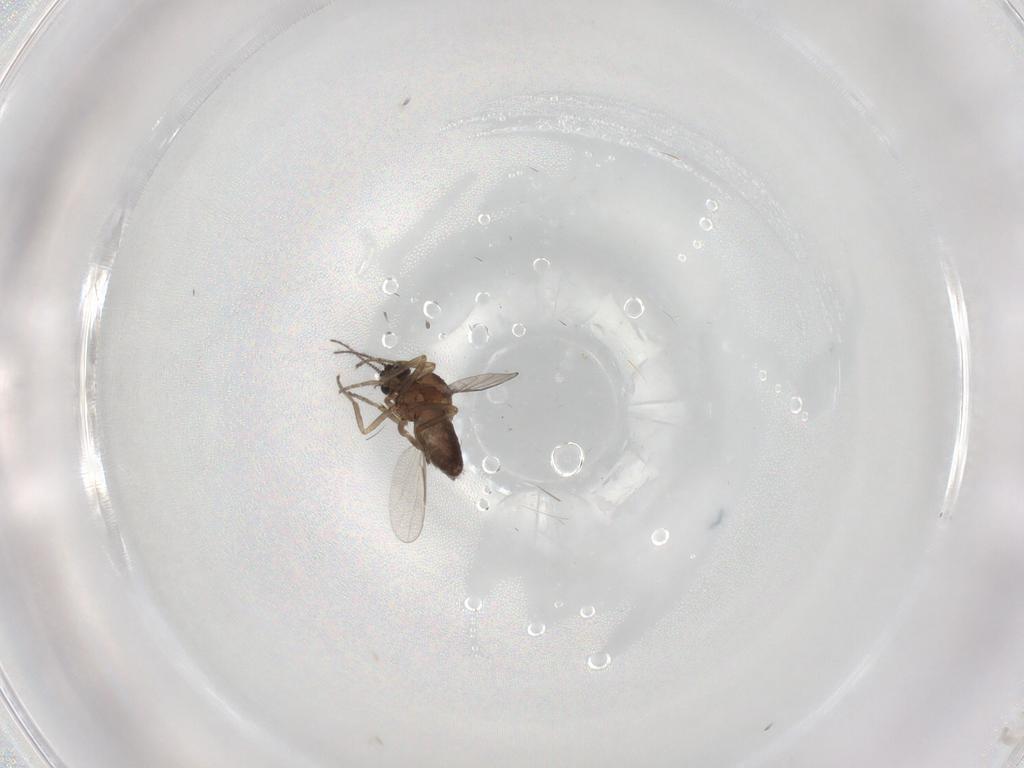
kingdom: Animalia
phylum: Arthropoda
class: Insecta
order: Diptera
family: Ceratopogonidae
